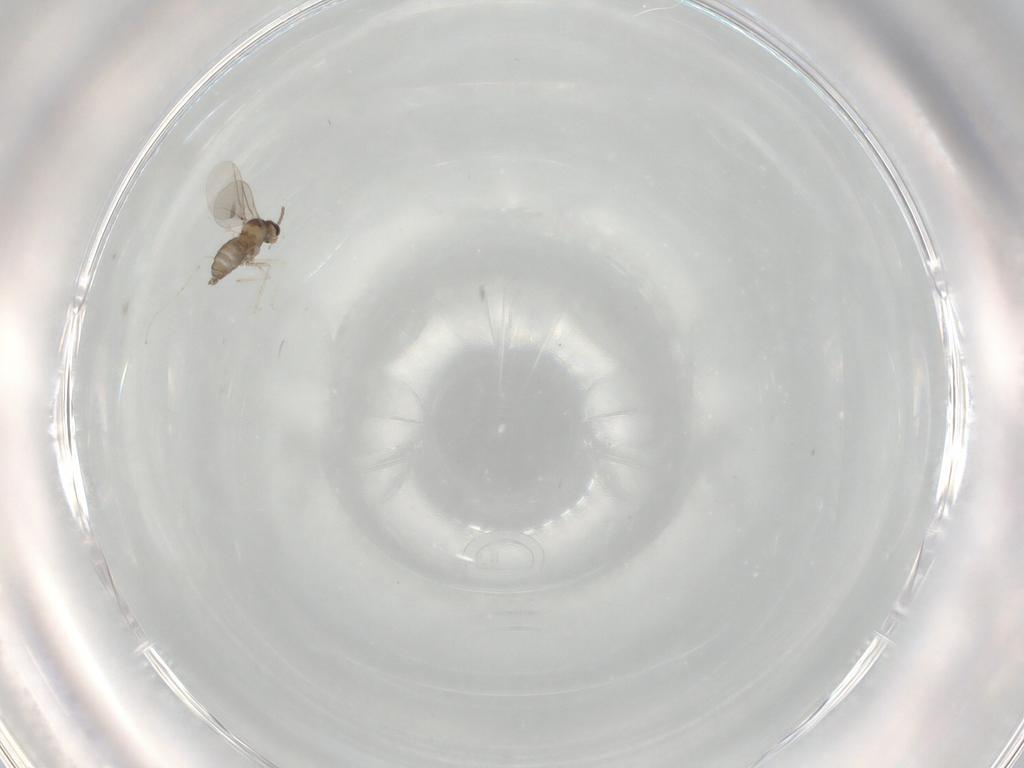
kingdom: Animalia
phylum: Arthropoda
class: Insecta
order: Diptera
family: Cecidomyiidae
